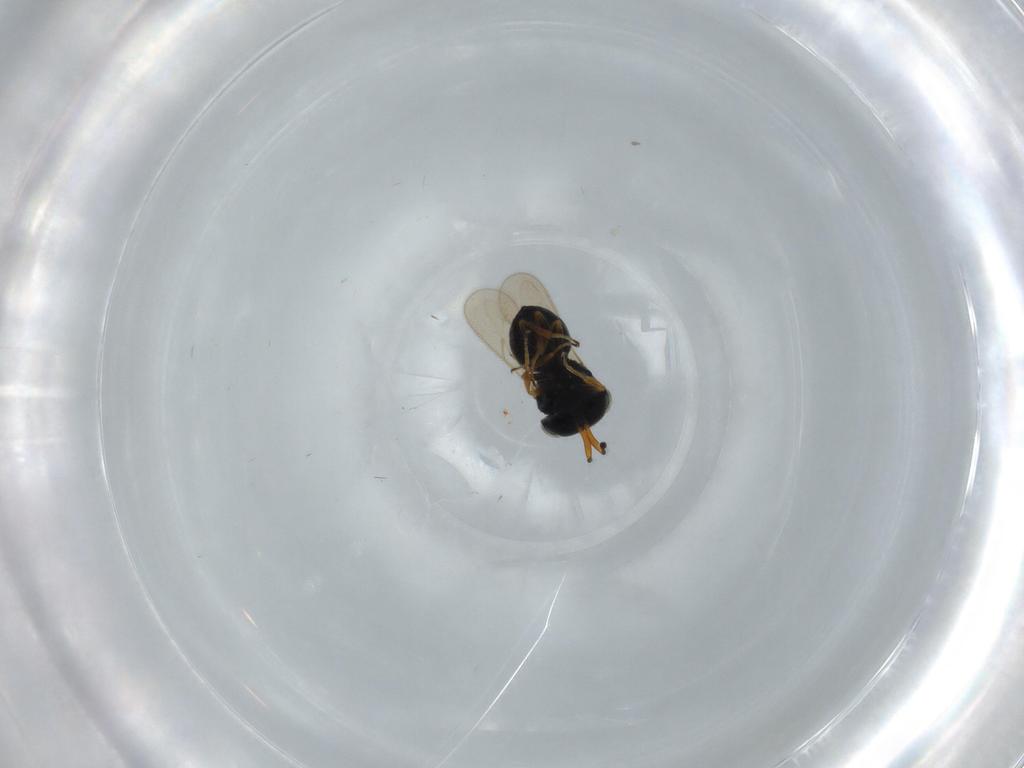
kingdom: Animalia
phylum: Arthropoda
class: Insecta
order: Hymenoptera
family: Scelionidae
